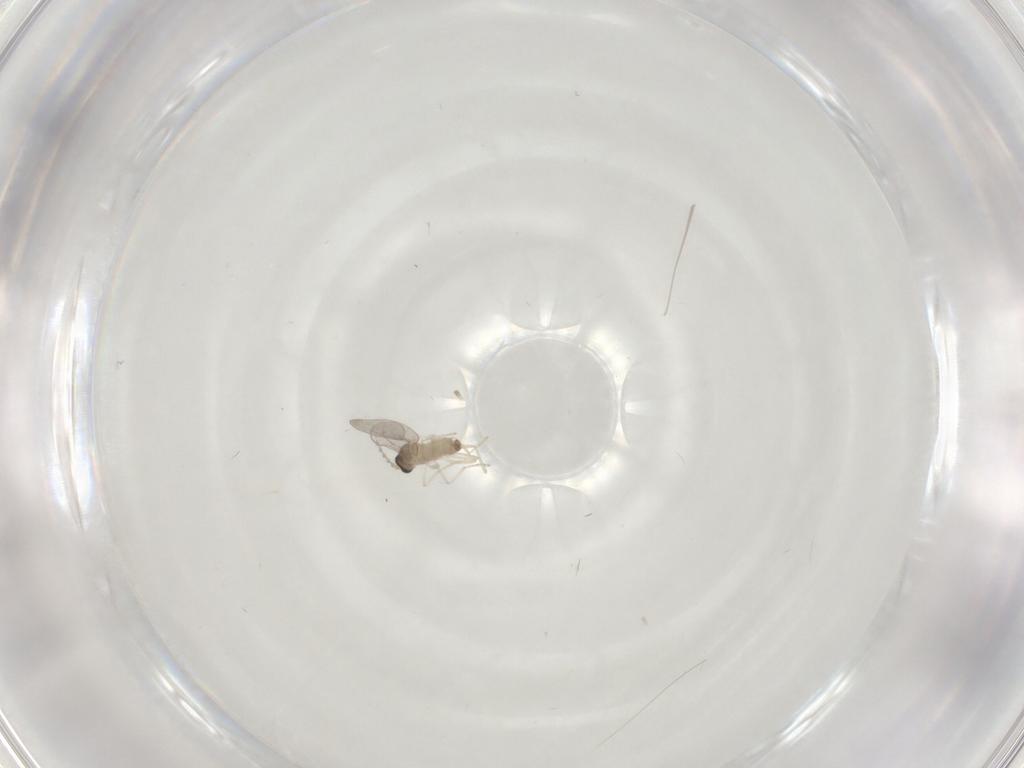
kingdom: Animalia
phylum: Arthropoda
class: Insecta
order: Diptera
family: Cecidomyiidae
